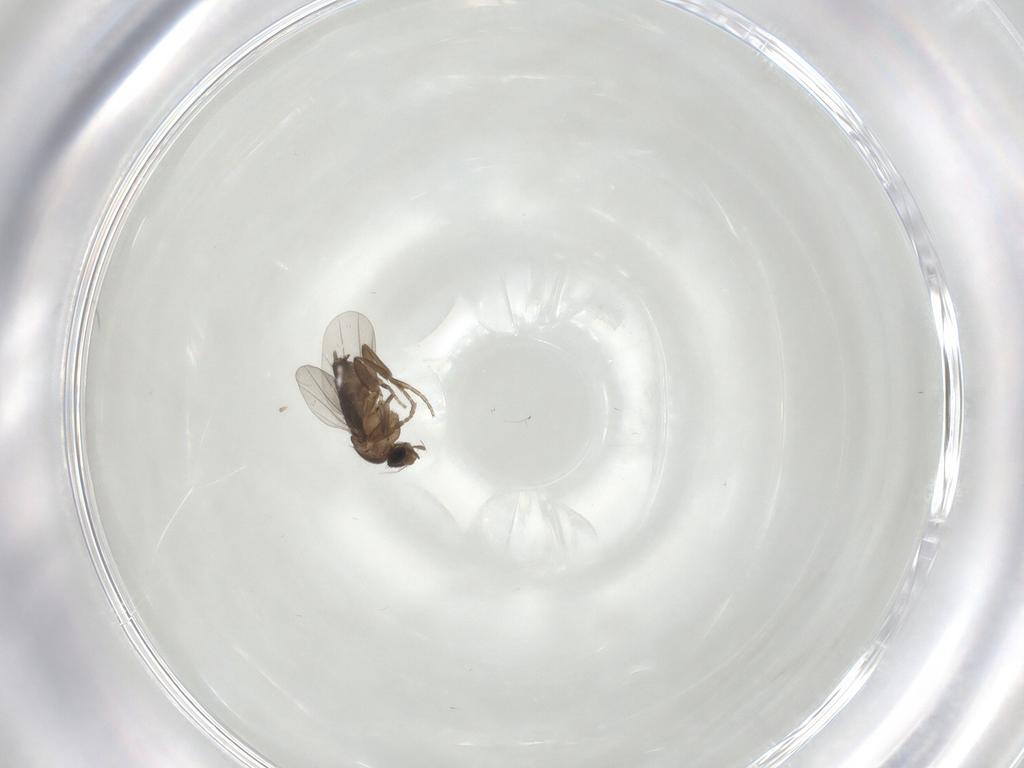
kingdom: Animalia
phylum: Arthropoda
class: Insecta
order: Diptera
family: Phoridae
